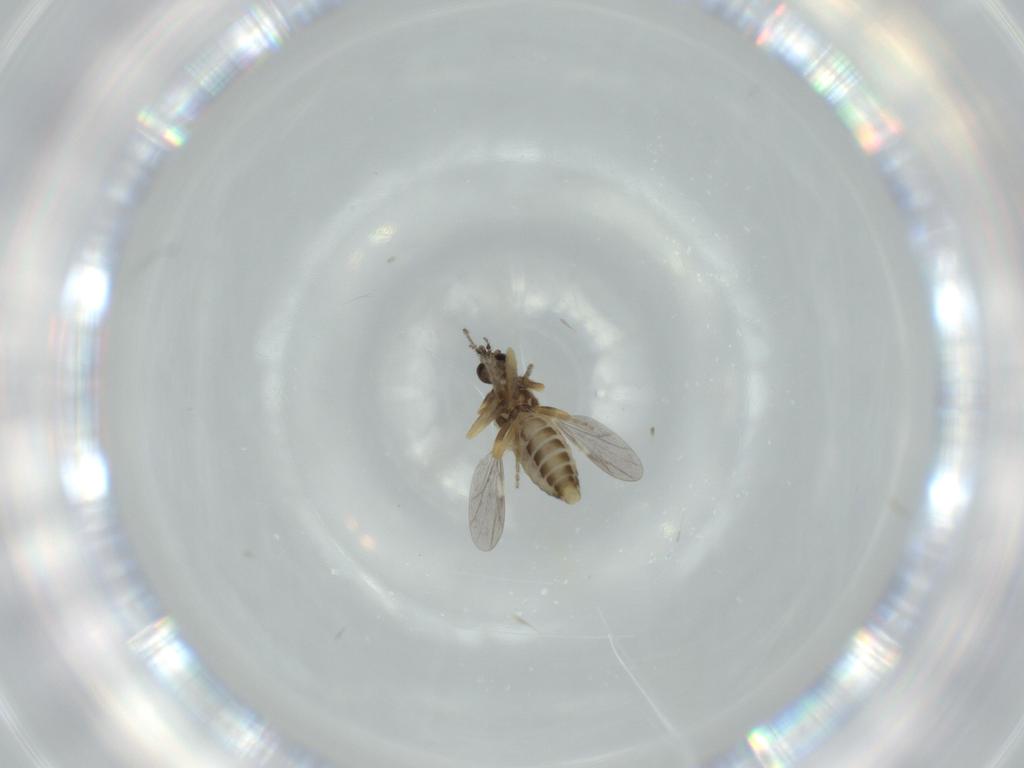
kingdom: Animalia
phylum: Arthropoda
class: Insecta
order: Diptera
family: Ceratopogonidae
